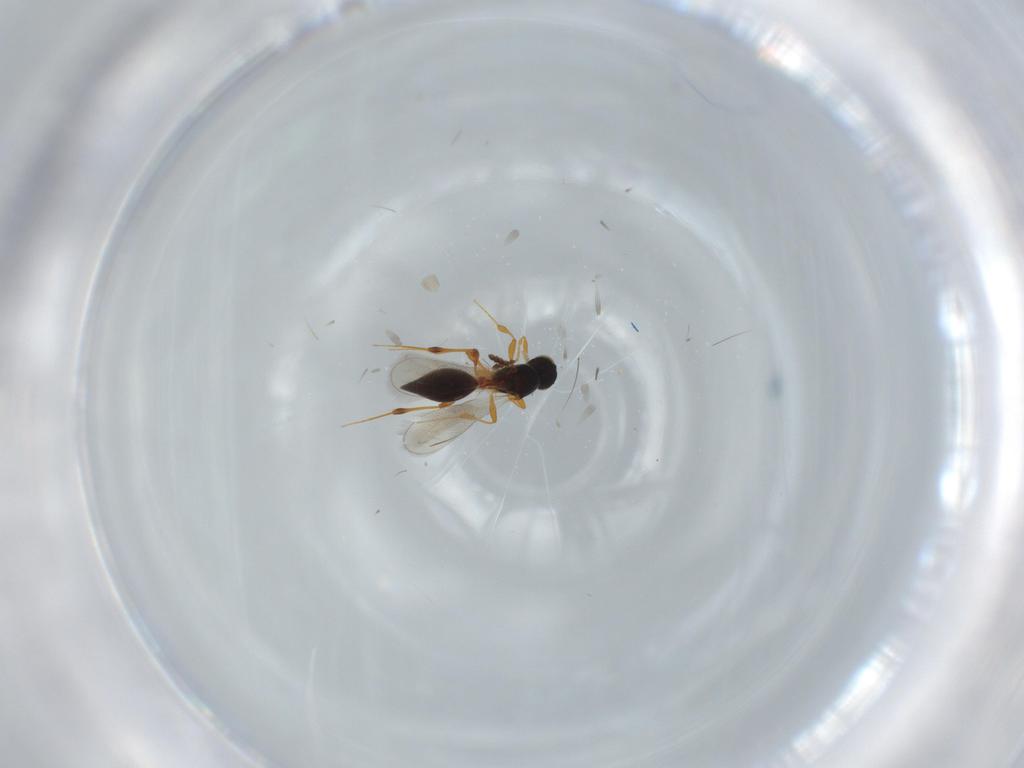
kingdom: Animalia
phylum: Arthropoda
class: Insecta
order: Hymenoptera
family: Platygastridae
